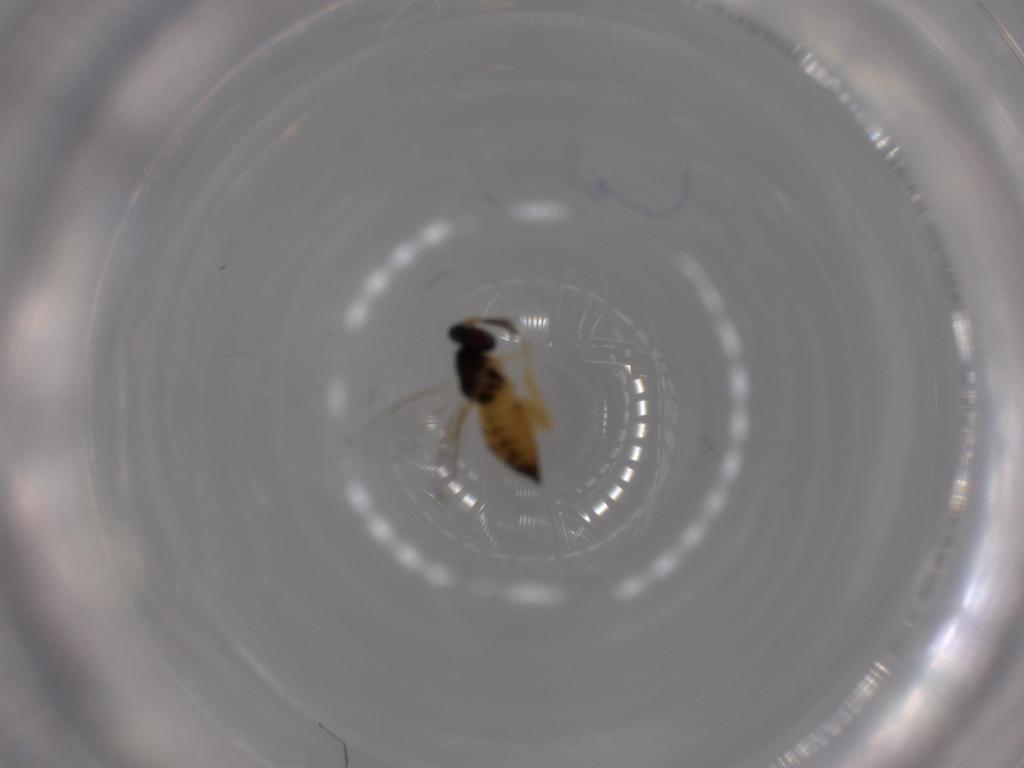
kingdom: Animalia
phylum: Arthropoda
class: Insecta
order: Hymenoptera
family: Eulophidae
